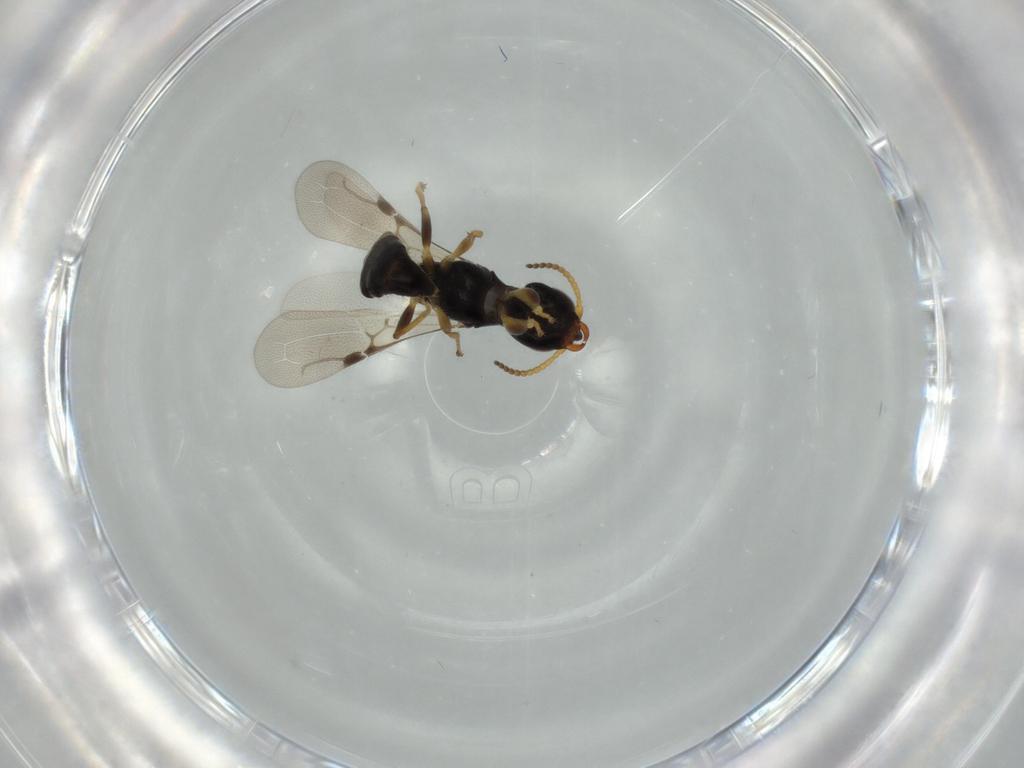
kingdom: Animalia
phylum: Arthropoda
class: Insecta
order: Hymenoptera
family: Bethylidae
